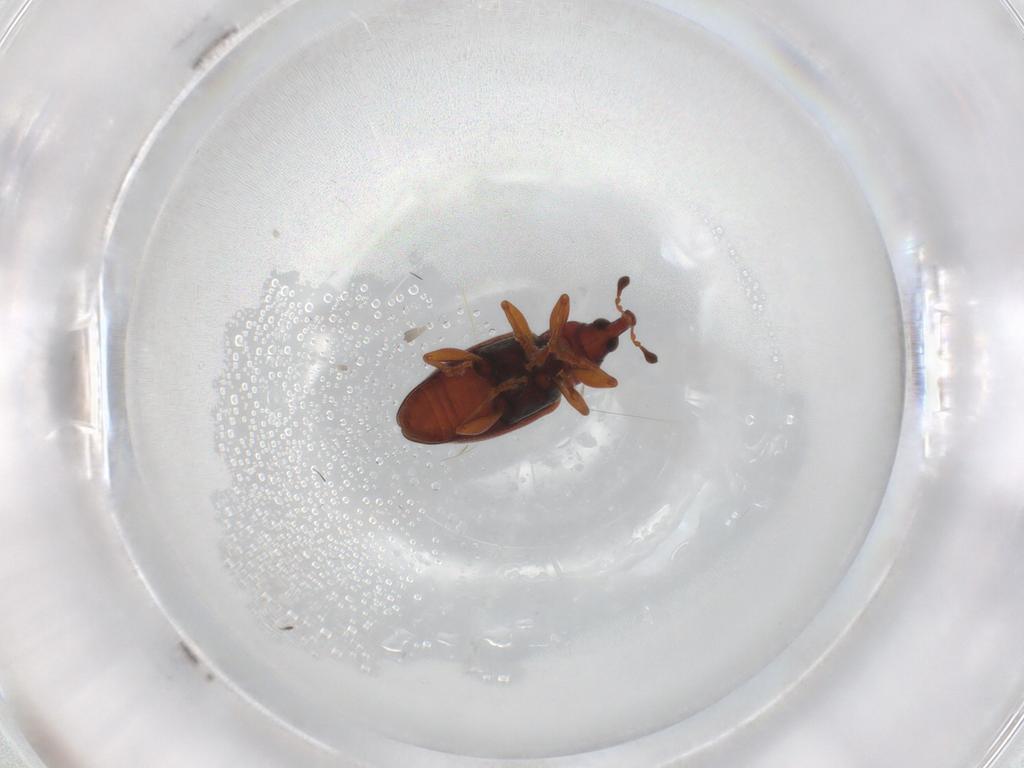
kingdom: Animalia
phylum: Arthropoda
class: Insecta
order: Coleoptera
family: Curculionidae
